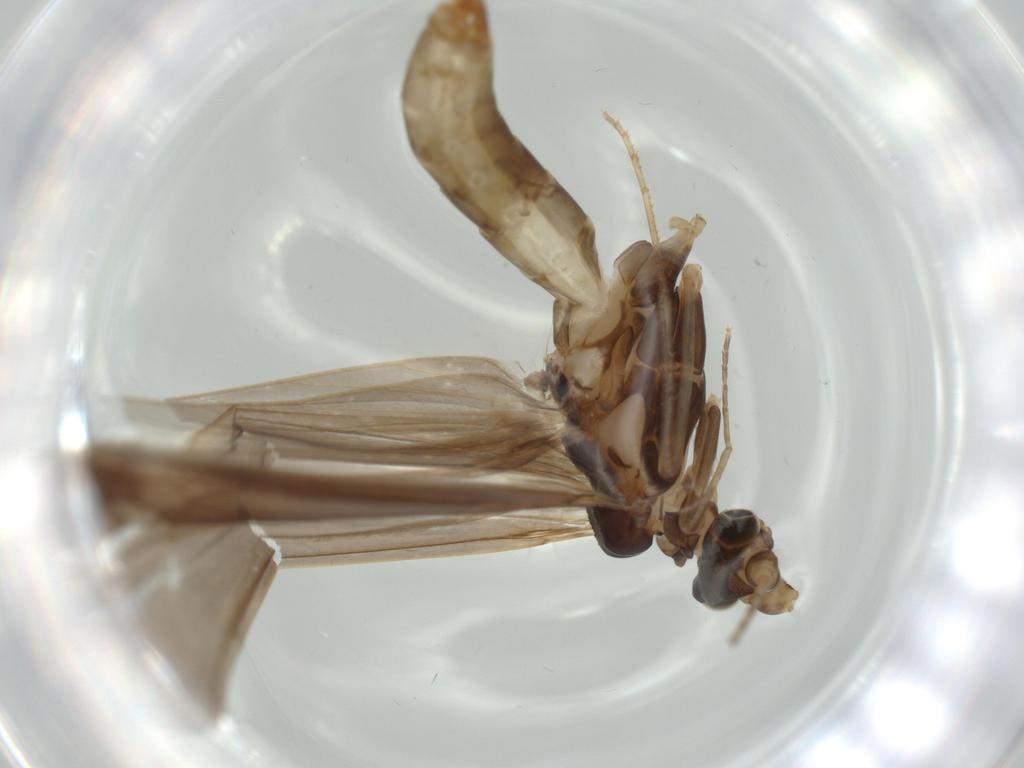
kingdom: Animalia
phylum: Arthropoda
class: Insecta
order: Trichoptera
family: Leptoceridae
